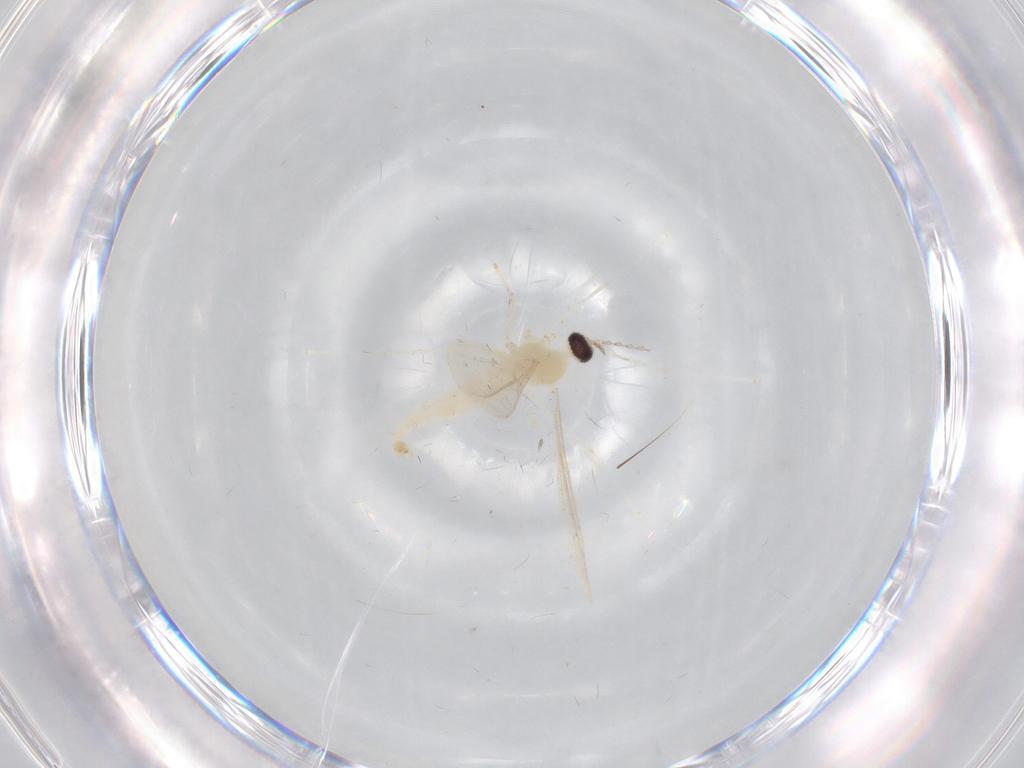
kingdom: Animalia
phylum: Arthropoda
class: Insecta
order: Diptera
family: Cecidomyiidae
